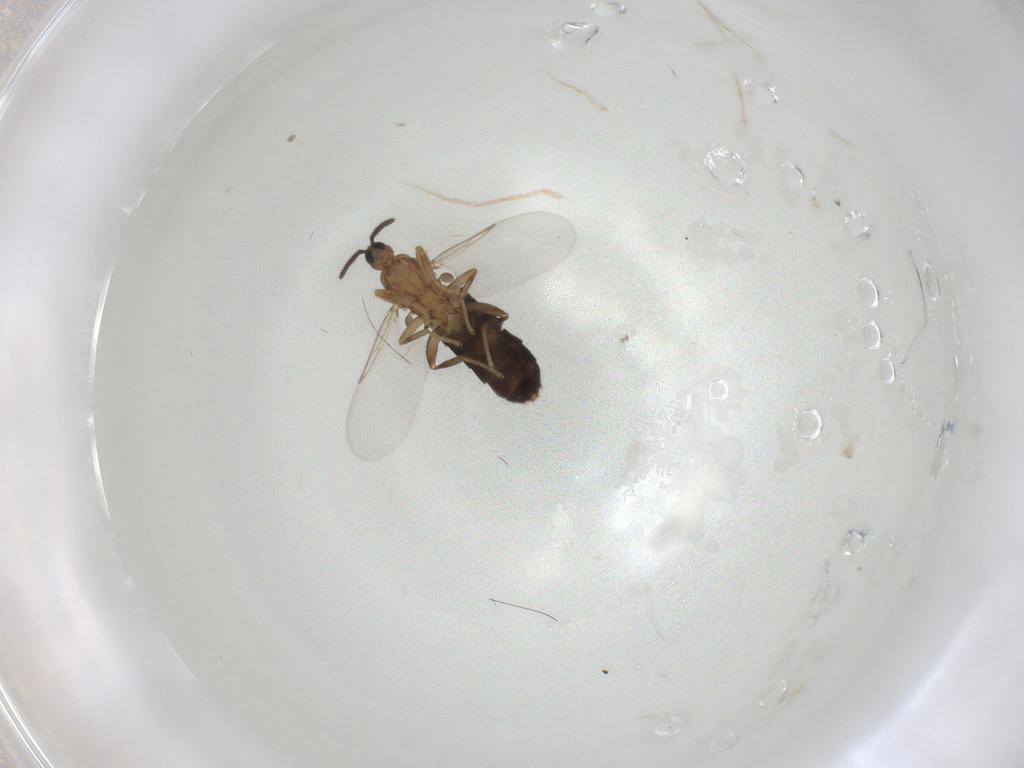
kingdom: Animalia
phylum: Arthropoda
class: Insecta
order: Diptera
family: Scatopsidae
